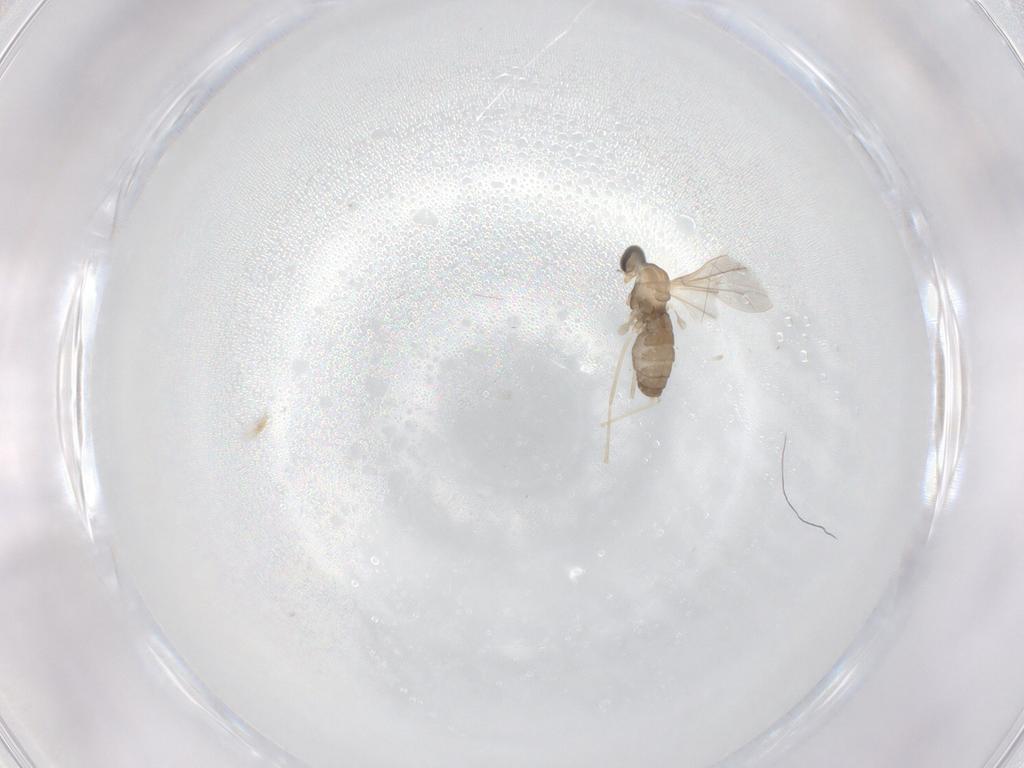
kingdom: Animalia
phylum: Arthropoda
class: Insecta
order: Diptera
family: Cecidomyiidae
